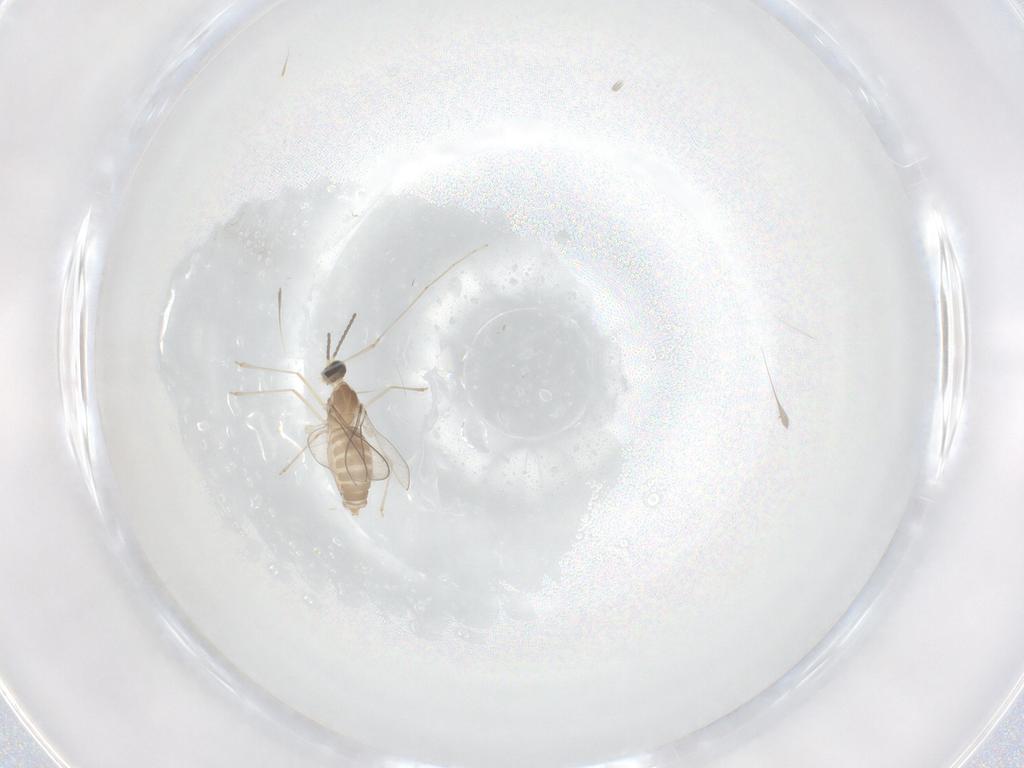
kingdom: Animalia
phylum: Arthropoda
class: Insecta
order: Diptera
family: Cecidomyiidae
